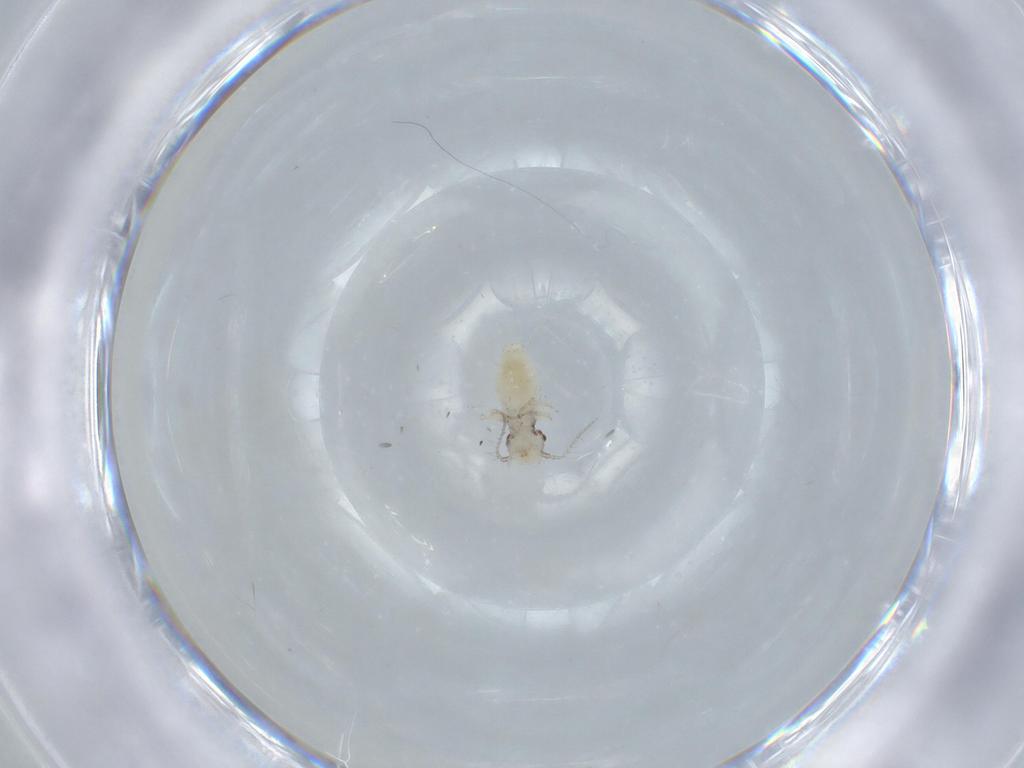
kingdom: Animalia
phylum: Arthropoda
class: Insecta
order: Psocodea
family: Pseudocaeciliidae
